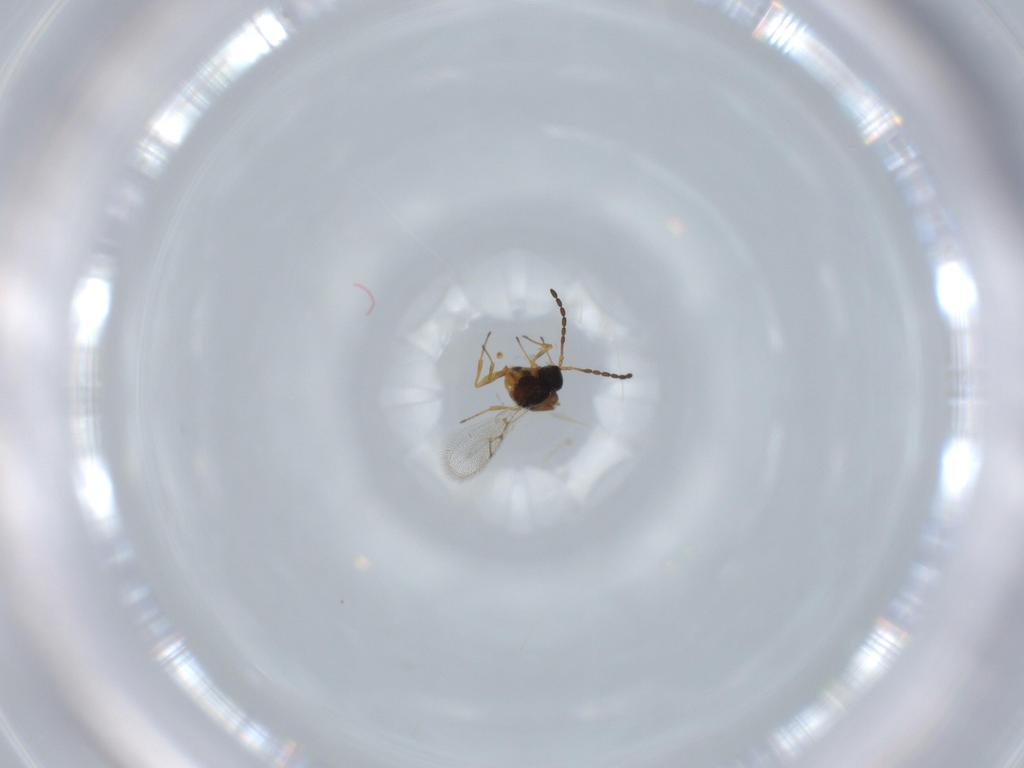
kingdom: Animalia
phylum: Arthropoda
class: Insecta
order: Hymenoptera
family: Figitidae
